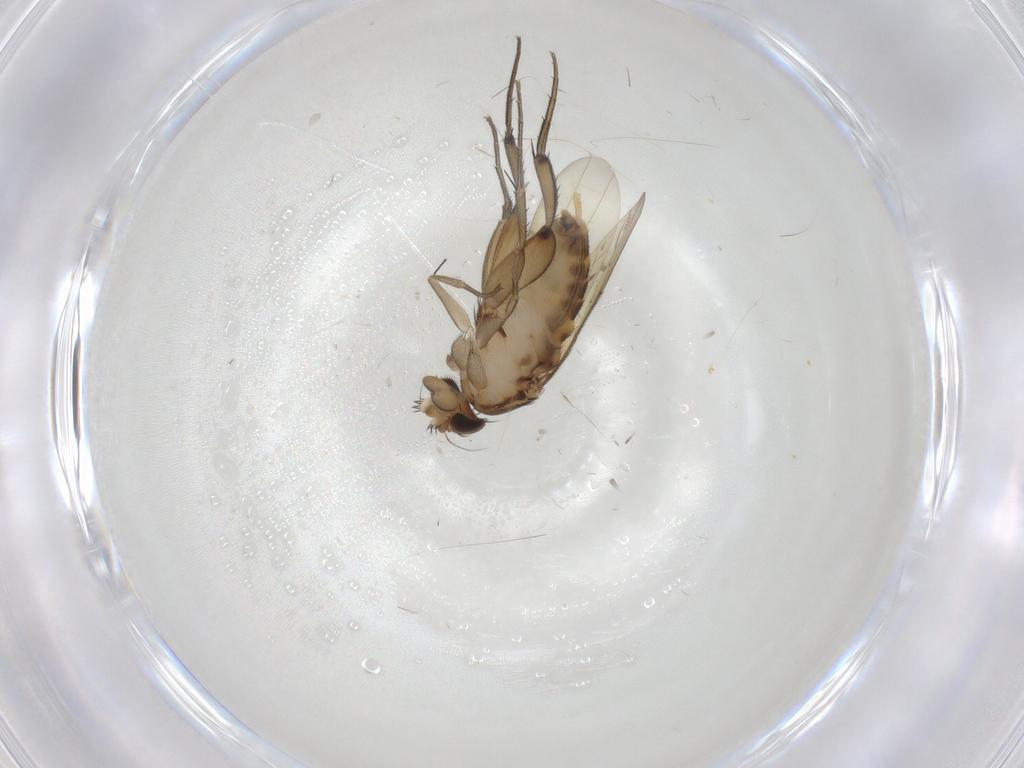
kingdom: Animalia
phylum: Arthropoda
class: Insecta
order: Diptera
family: Phoridae
